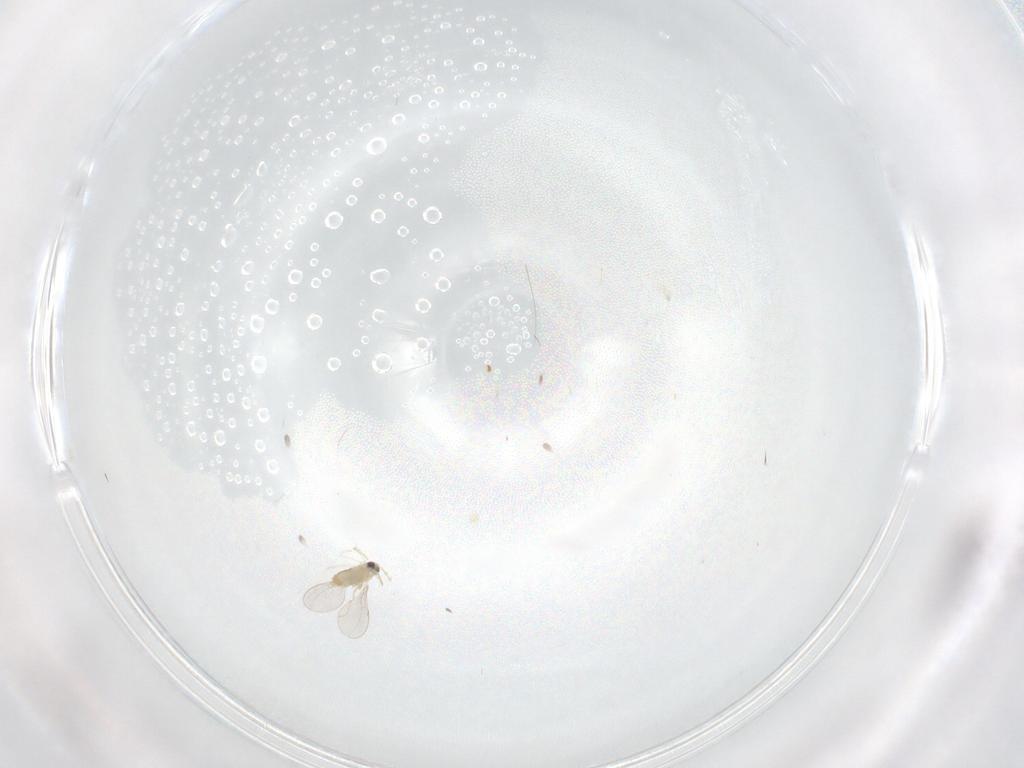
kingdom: Animalia
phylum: Arthropoda
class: Insecta
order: Diptera
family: Cecidomyiidae
